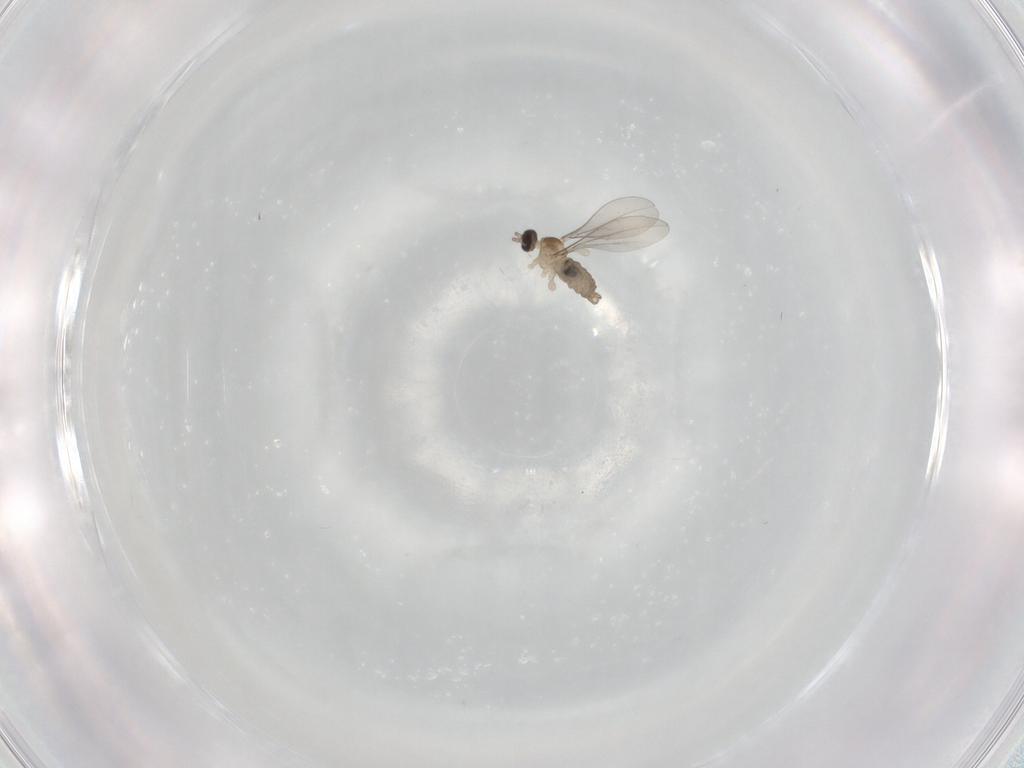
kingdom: Animalia
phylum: Arthropoda
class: Insecta
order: Diptera
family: Cecidomyiidae
